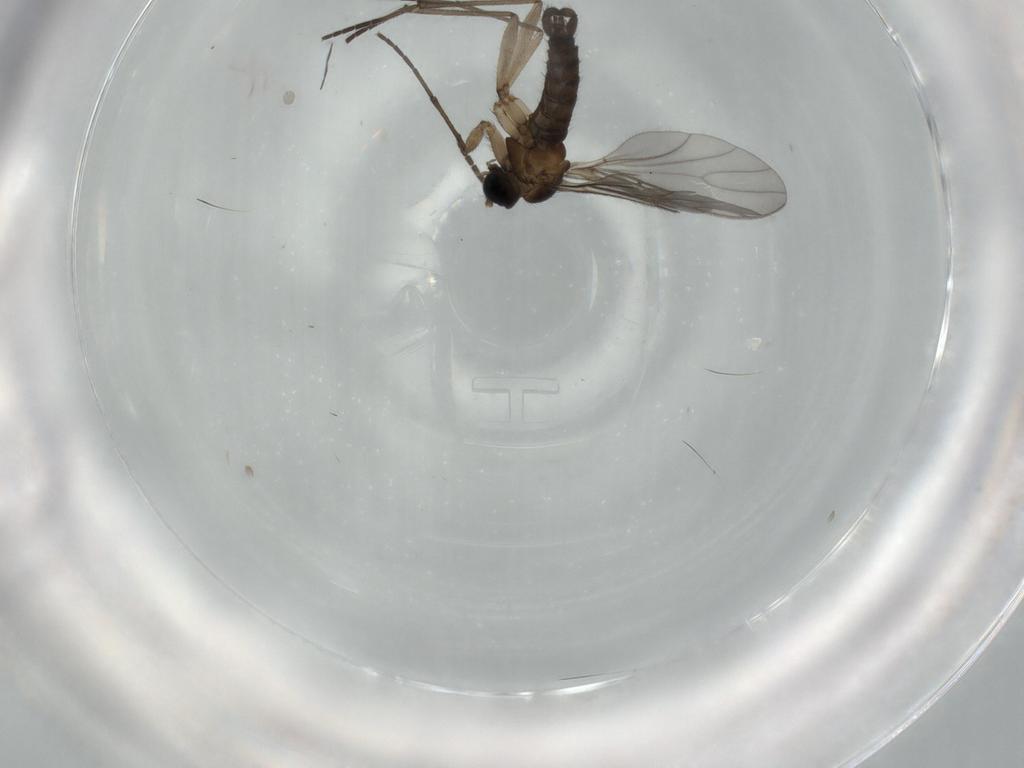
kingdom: Animalia
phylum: Arthropoda
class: Insecta
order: Diptera
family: Sciaridae
